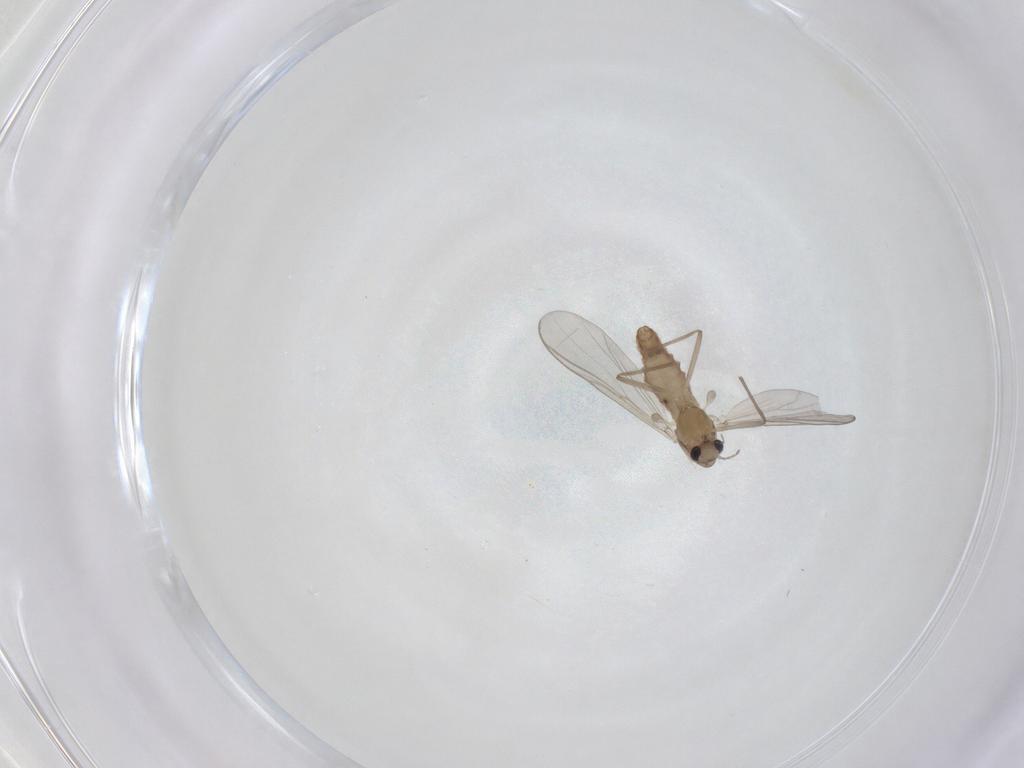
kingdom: Animalia
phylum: Arthropoda
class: Insecta
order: Diptera
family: Chironomidae
